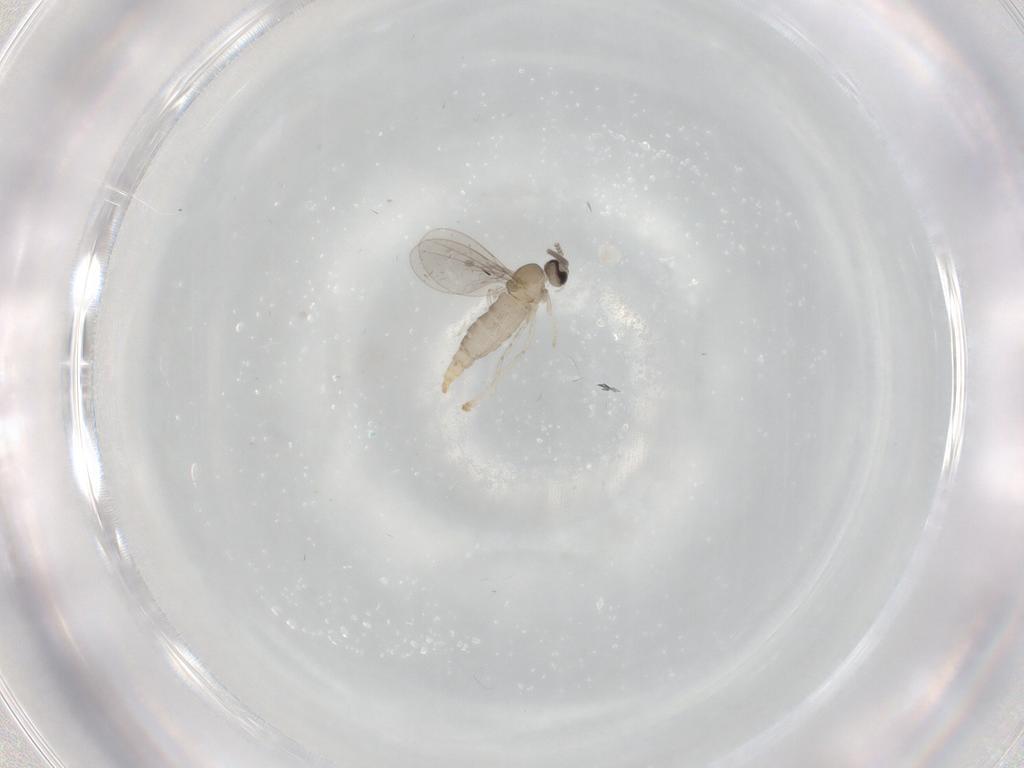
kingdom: Animalia
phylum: Arthropoda
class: Insecta
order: Diptera
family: Cecidomyiidae
